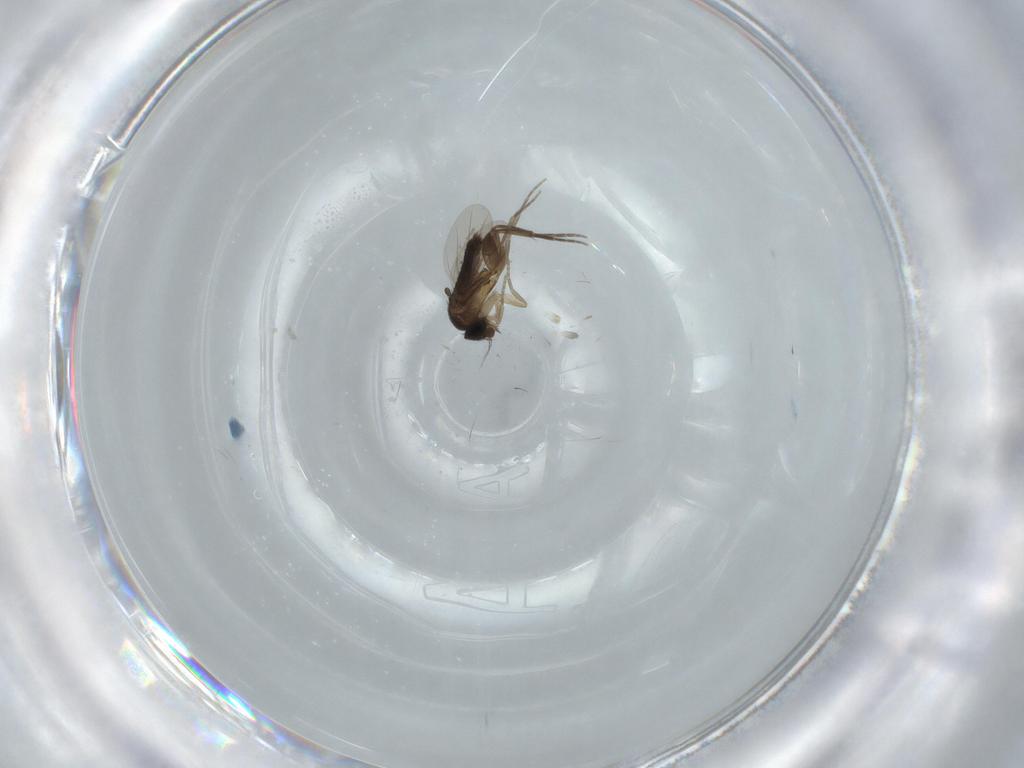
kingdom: Animalia
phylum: Arthropoda
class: Insecta
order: Diptera
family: Phoridae
